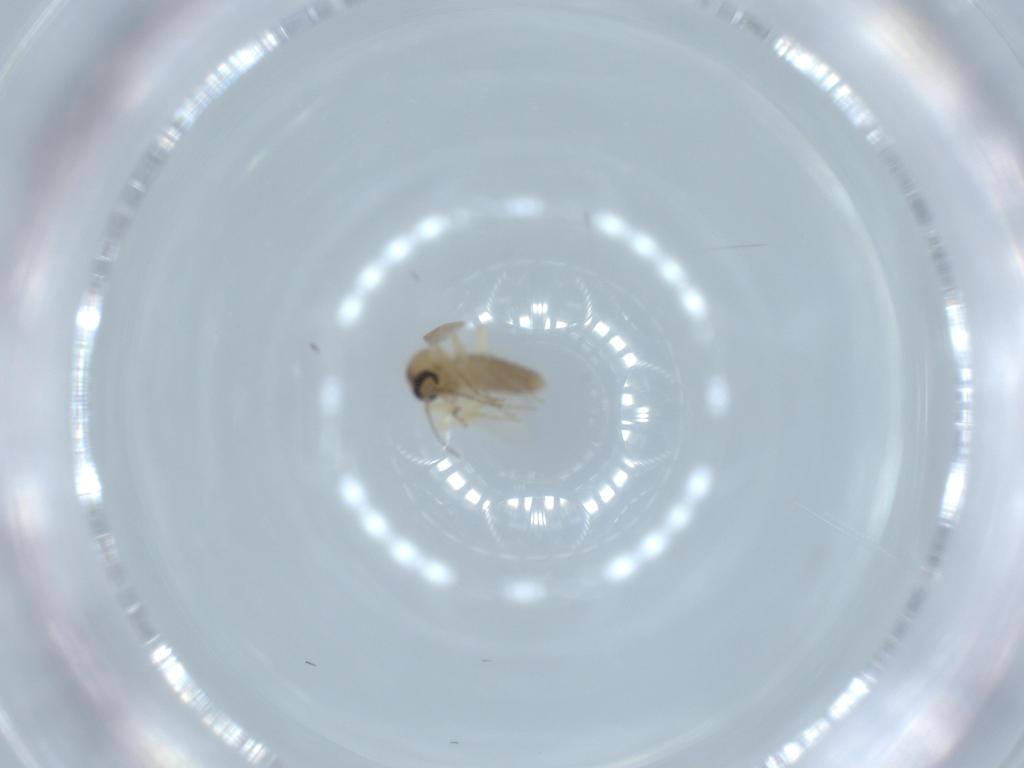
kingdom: Animalia
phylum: Arthropoda
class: Insecta
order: Diptera
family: Ceratopogonidae
